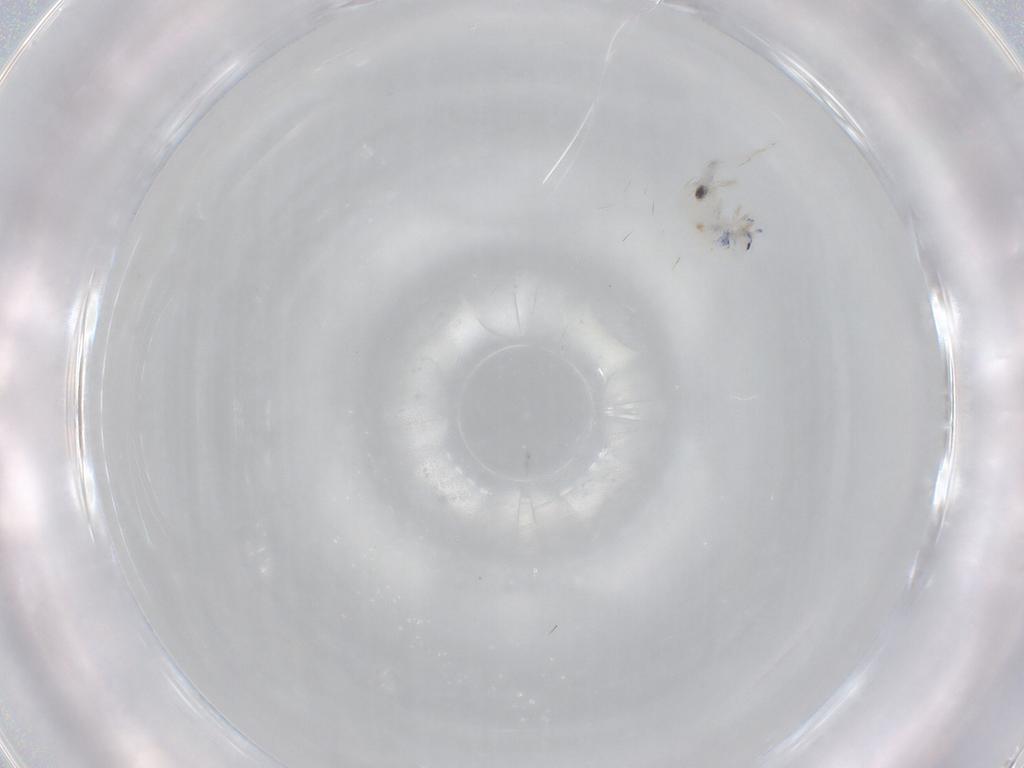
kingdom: Animalia
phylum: Arthropoda
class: Collembola
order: Entomobryomorpha
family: Entomobryidae
